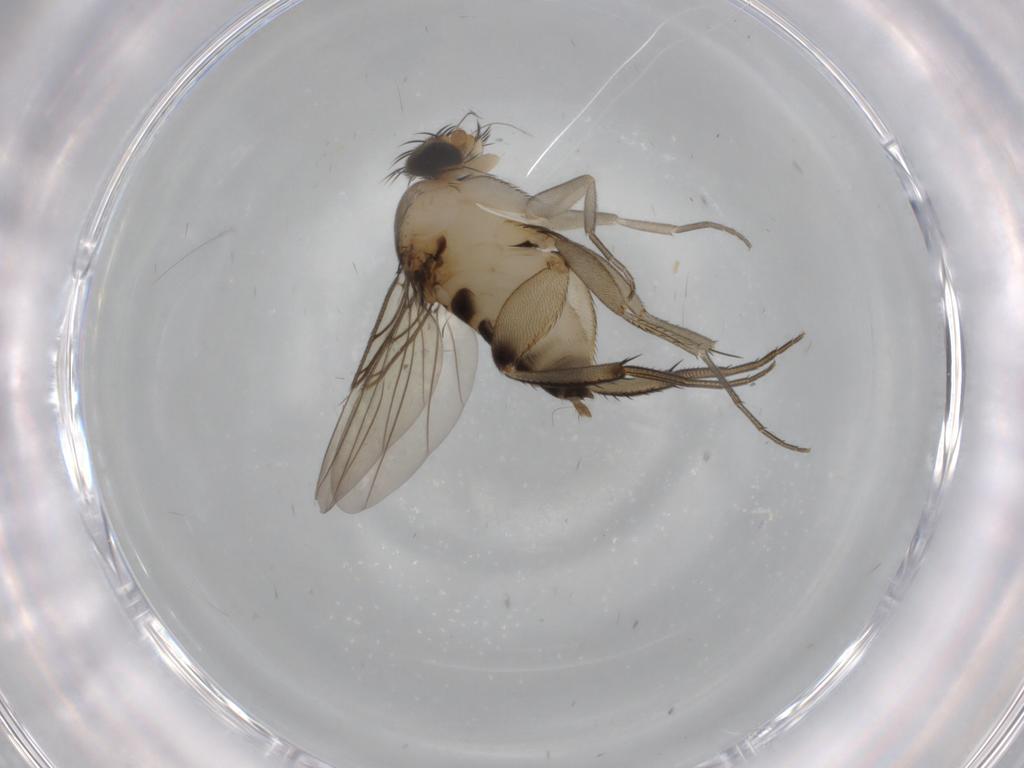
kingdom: Animalia
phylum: Arthropoda
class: Insecta
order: Diptera
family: Phoridae
